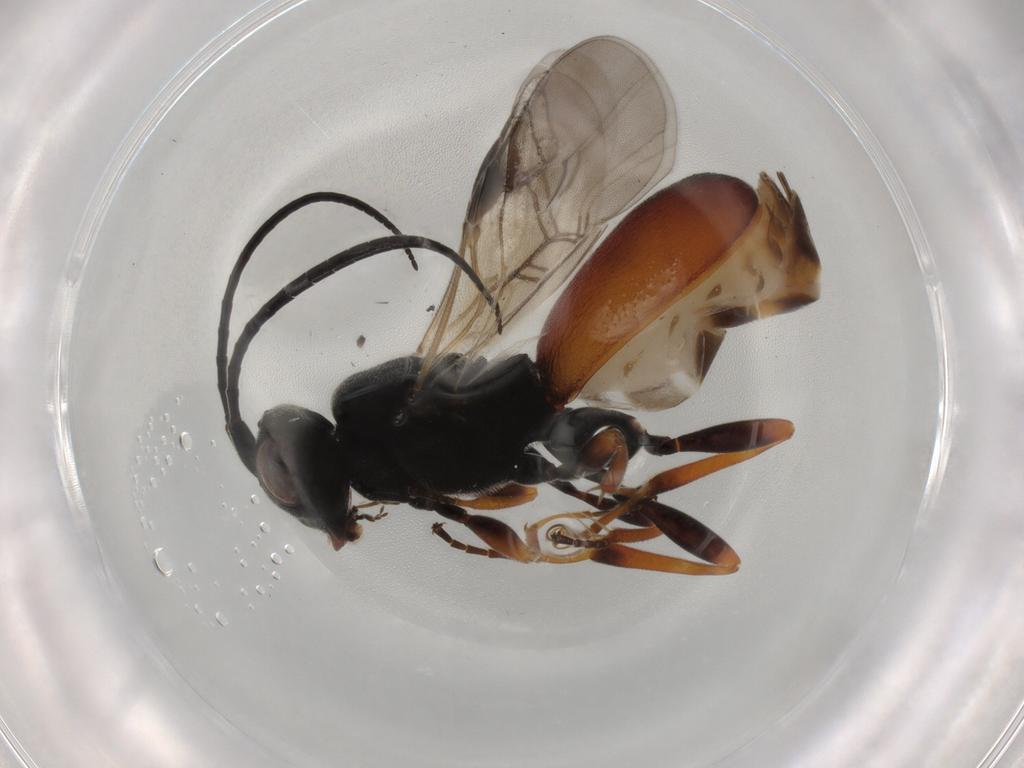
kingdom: Animalia
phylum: Arthropoda
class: Insecta
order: Hymenoptera
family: Braconidae
